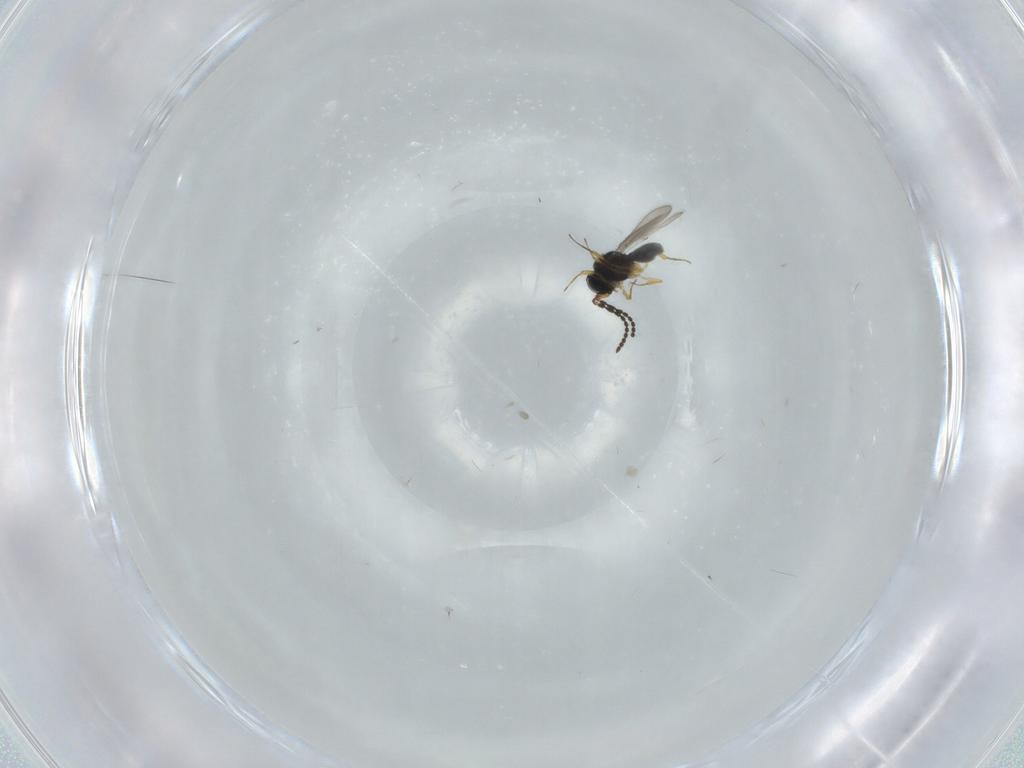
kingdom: Animalia
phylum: Arthropoda
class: Insecta
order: Hymenoptera
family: Scelionidae
